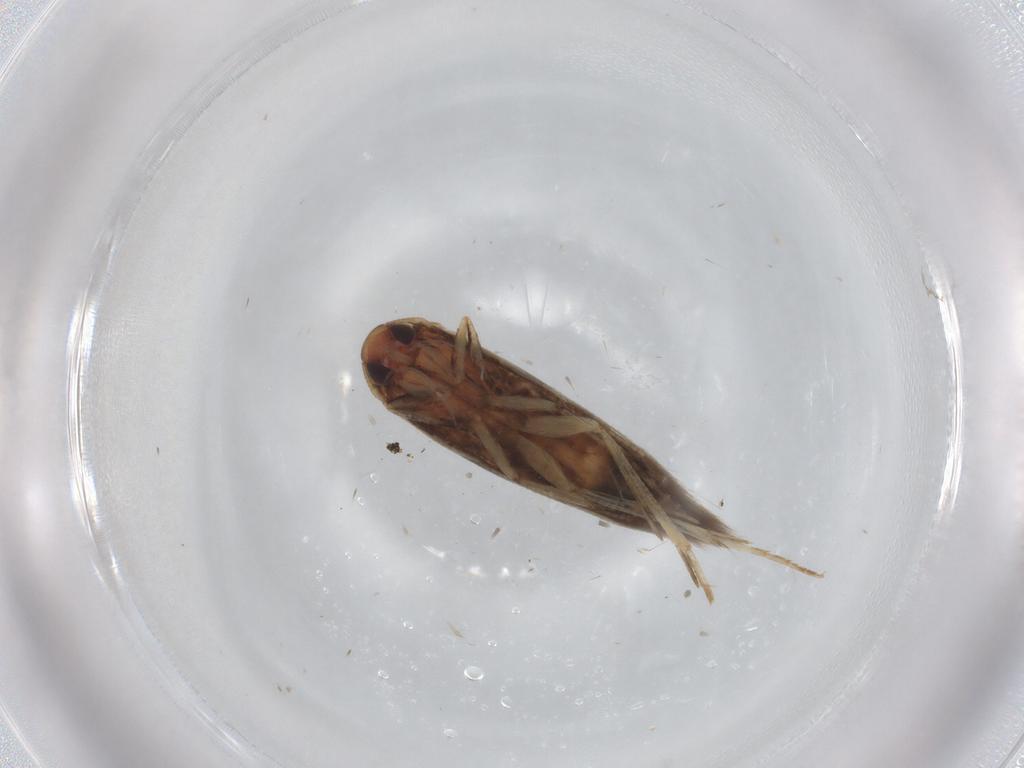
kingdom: Animalia
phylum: Arthropoda
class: Insecta
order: Lepidoptera
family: Cosmopterigidae
